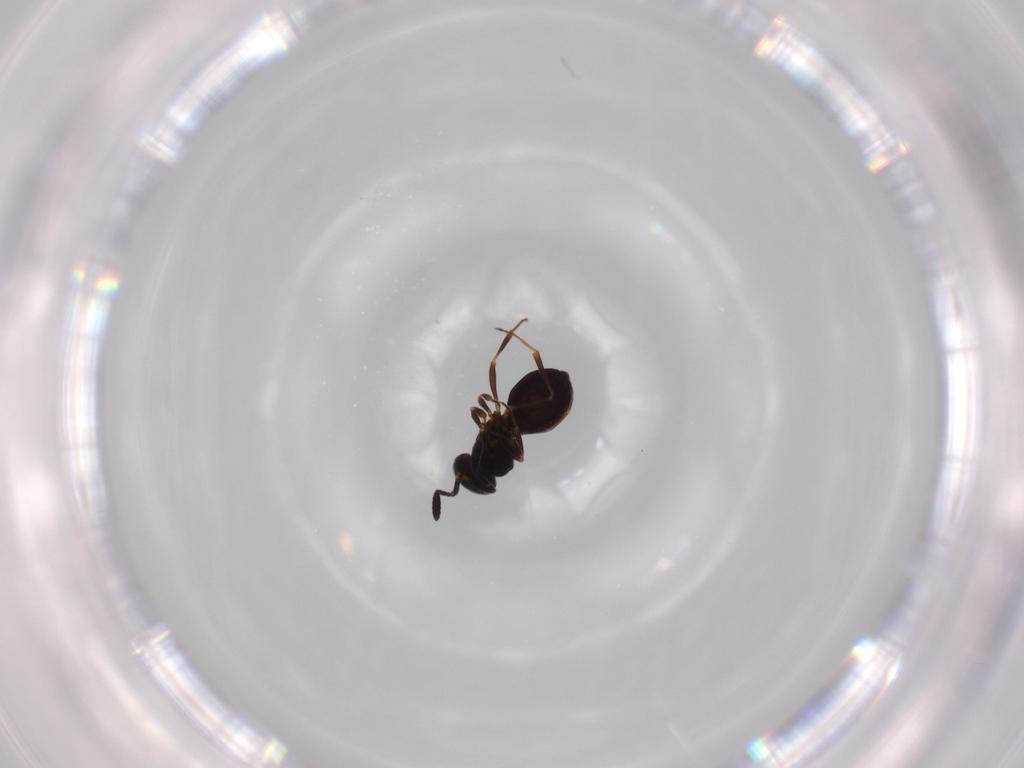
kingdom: Animalia
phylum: Arthropoda
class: Insecta
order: Hymenoptera
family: Scelionidae
